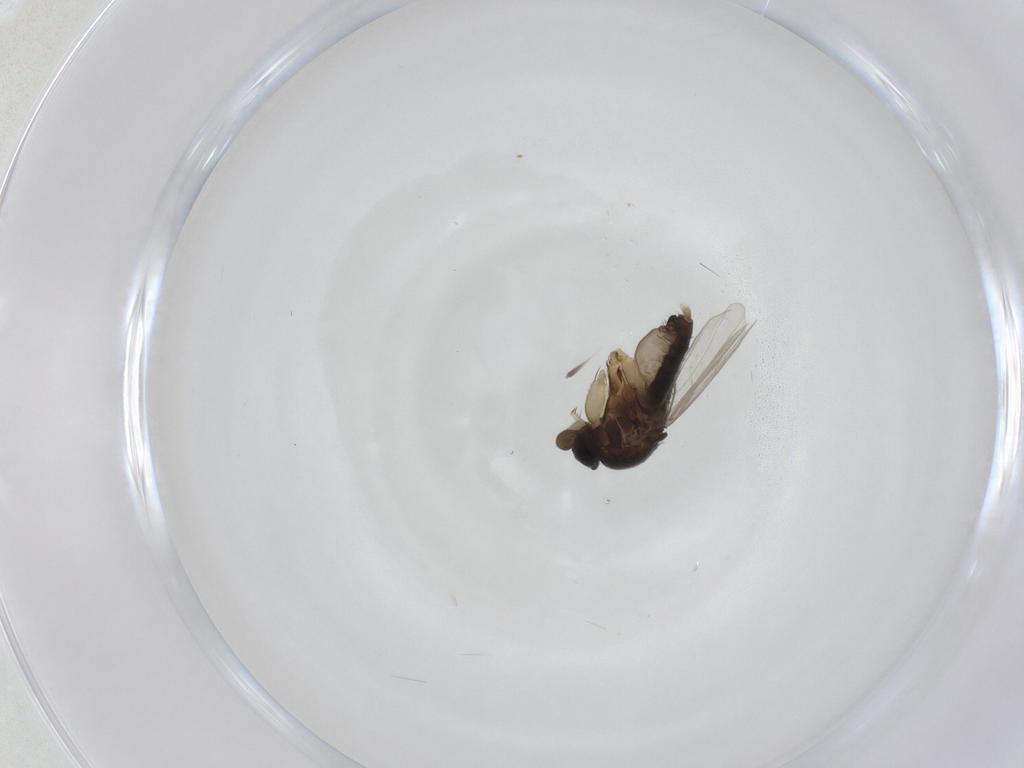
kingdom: Animalia
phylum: Arthropoda
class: Insecta
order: Diptera
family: Phoridae
